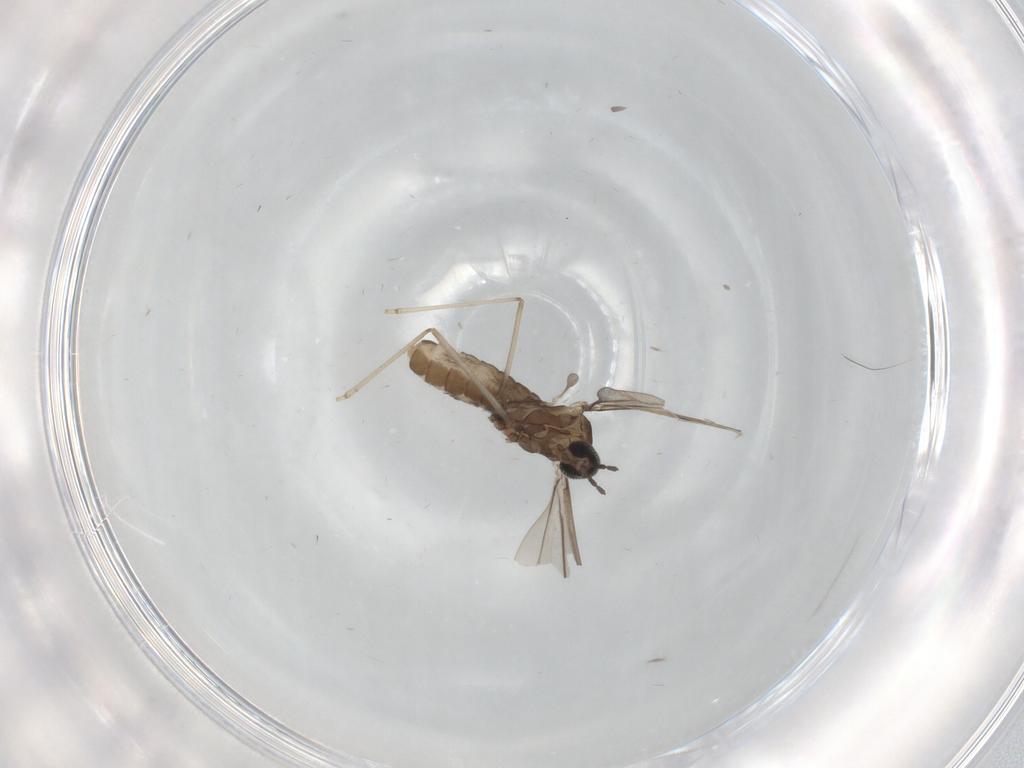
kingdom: Animalia
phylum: Arthropoda
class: Insecta
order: Diptera
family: Cecidomyiidae
